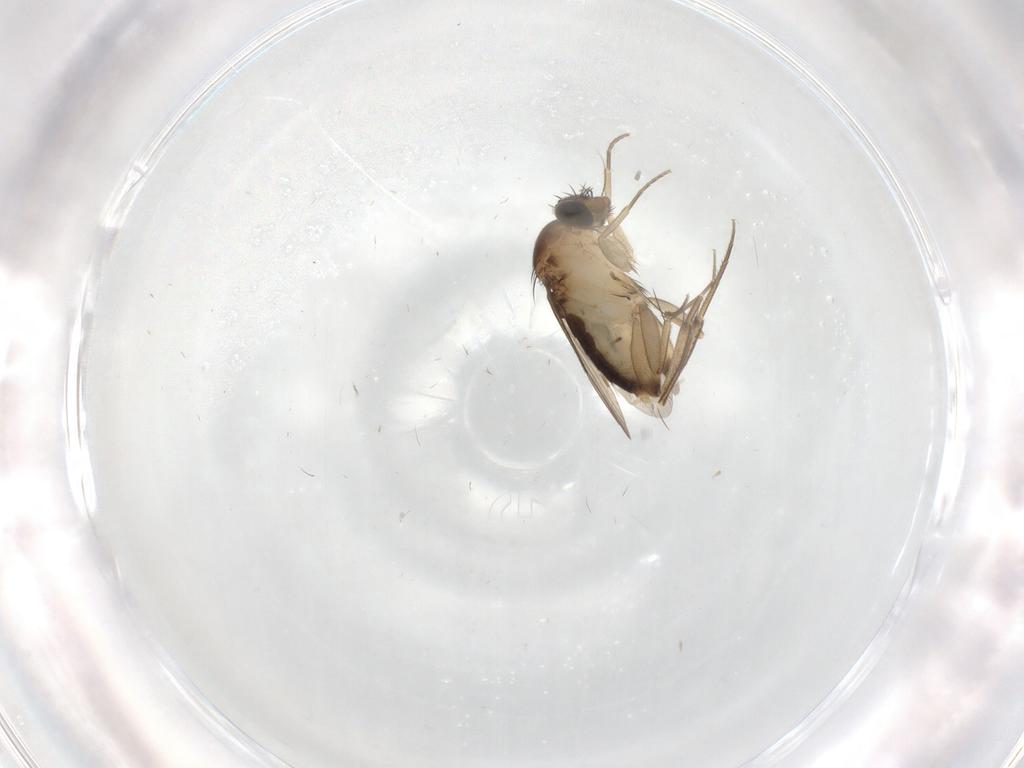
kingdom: Animalia
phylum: Arthropoda
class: Insecta
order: Diptera
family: Phoridae
